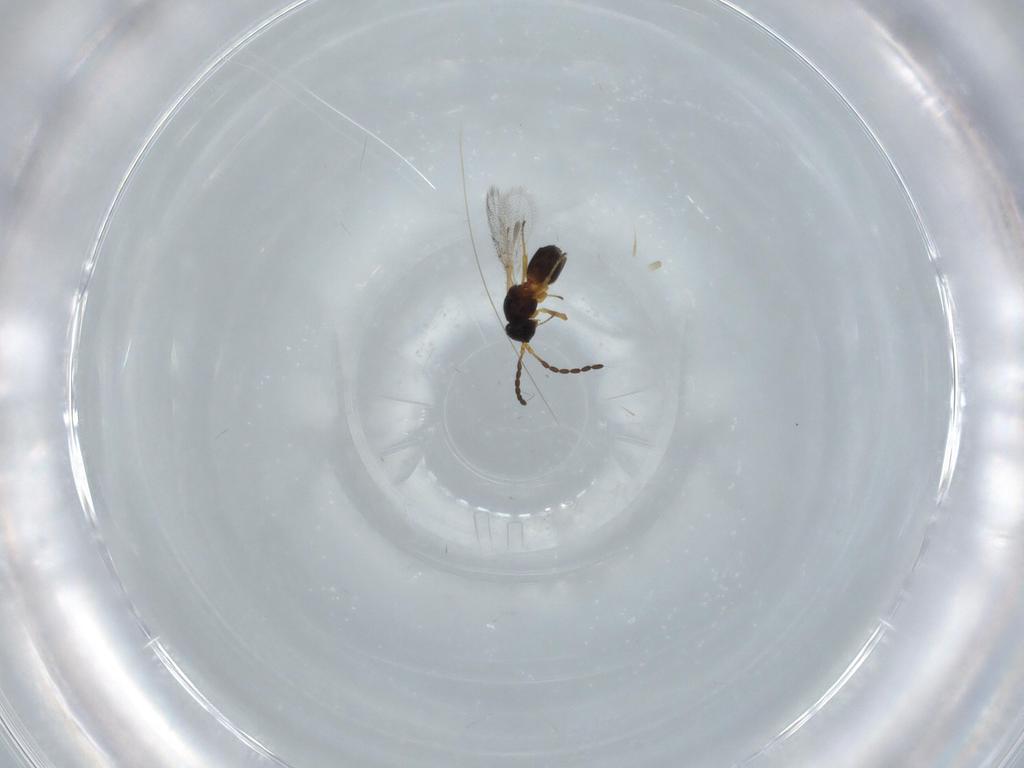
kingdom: Animalia
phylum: Arthropoda
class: Insecta
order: Hymenoptera
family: Figitidae
